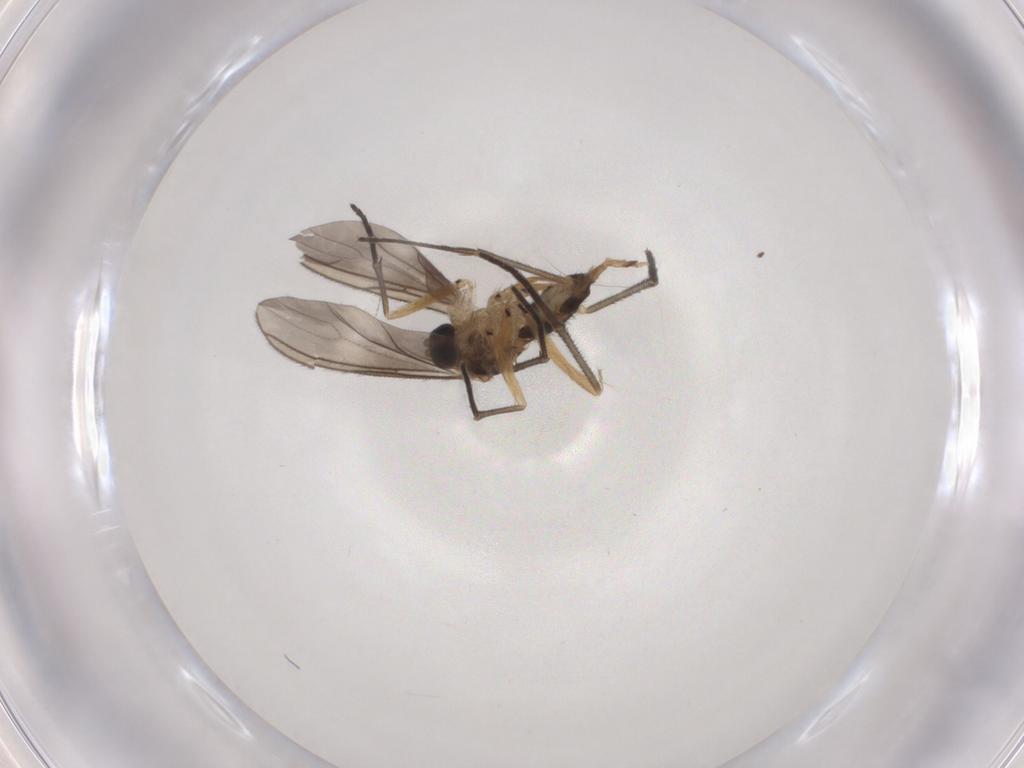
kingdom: Animalia
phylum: Arthropoda
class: Insecta
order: Diptera
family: Sciaridae
